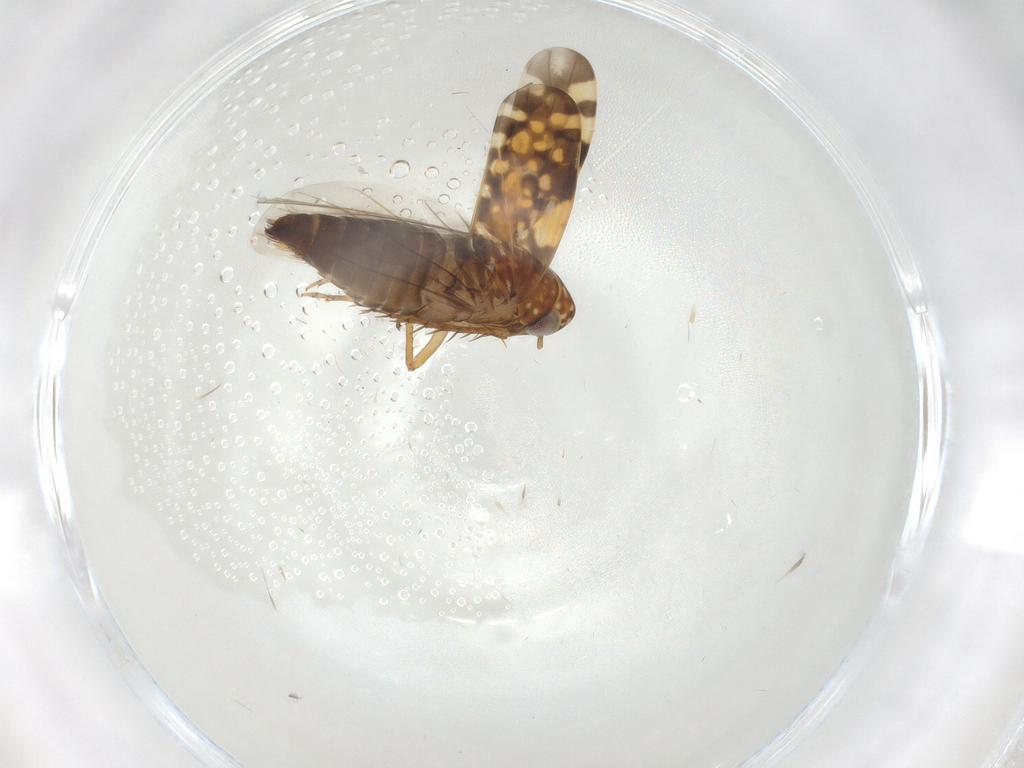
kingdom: Animalia
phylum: Arthropoda
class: Insecta
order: Hemiptera
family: Cicadellidae
